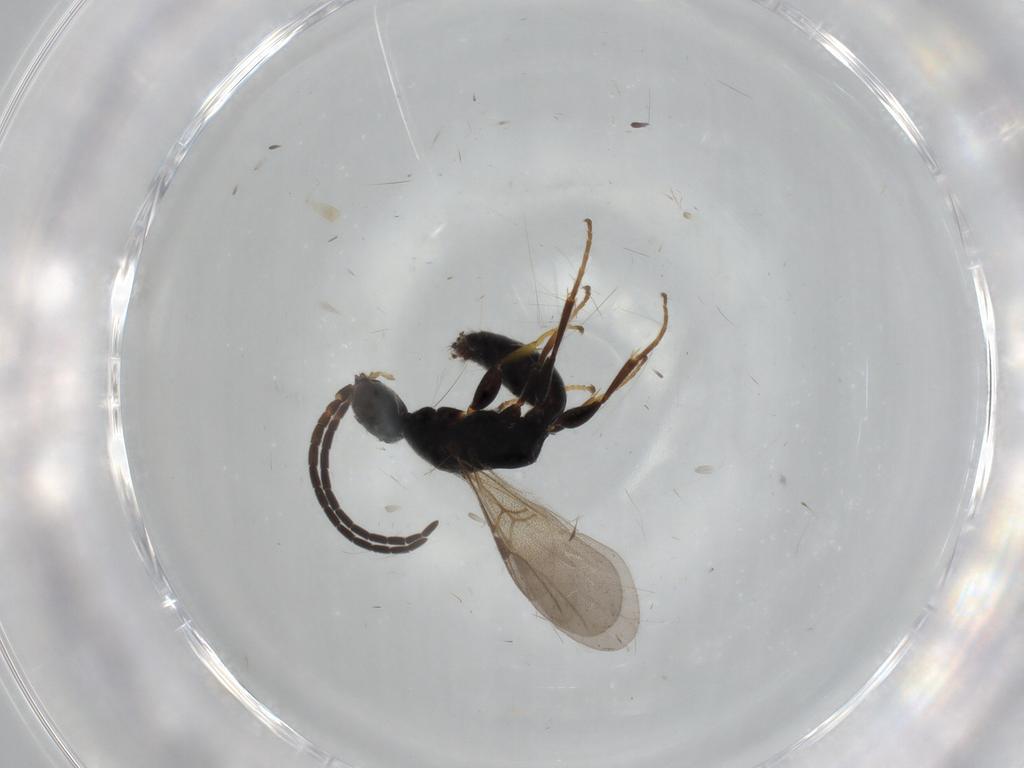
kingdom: Animalia
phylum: Arthropoda
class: Insecta
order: Hymenoptera
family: Bethylidae
